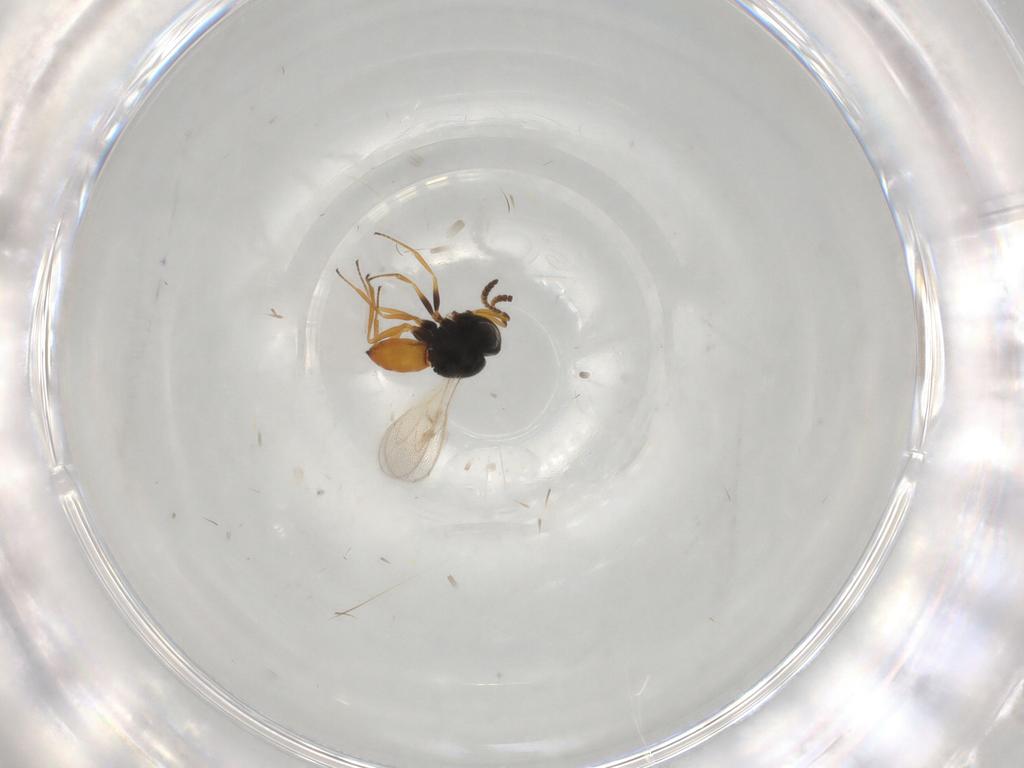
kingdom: Animalia
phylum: Arthropoda
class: Insecta
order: Hymenoptera
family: Scelionidae
